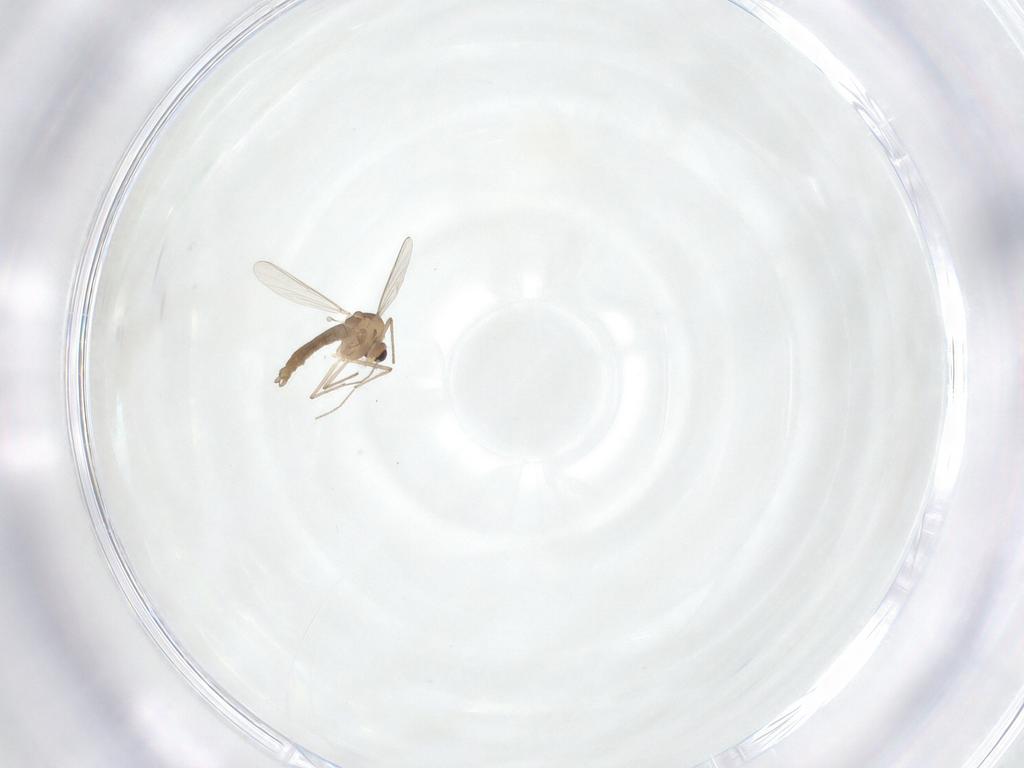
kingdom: Animalia
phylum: Arthropoda
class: Insecta
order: Diptera
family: Chironomidae
